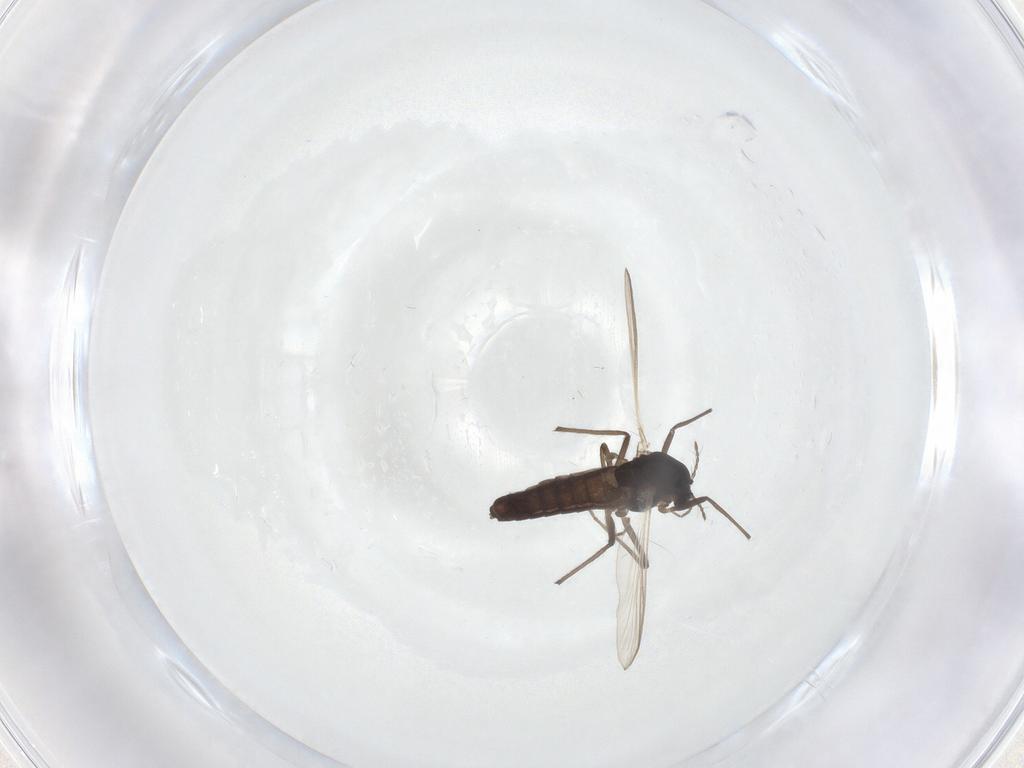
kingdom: Animalia
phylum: Arthropoda
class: Insecta
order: Diptera
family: Chironomidae
